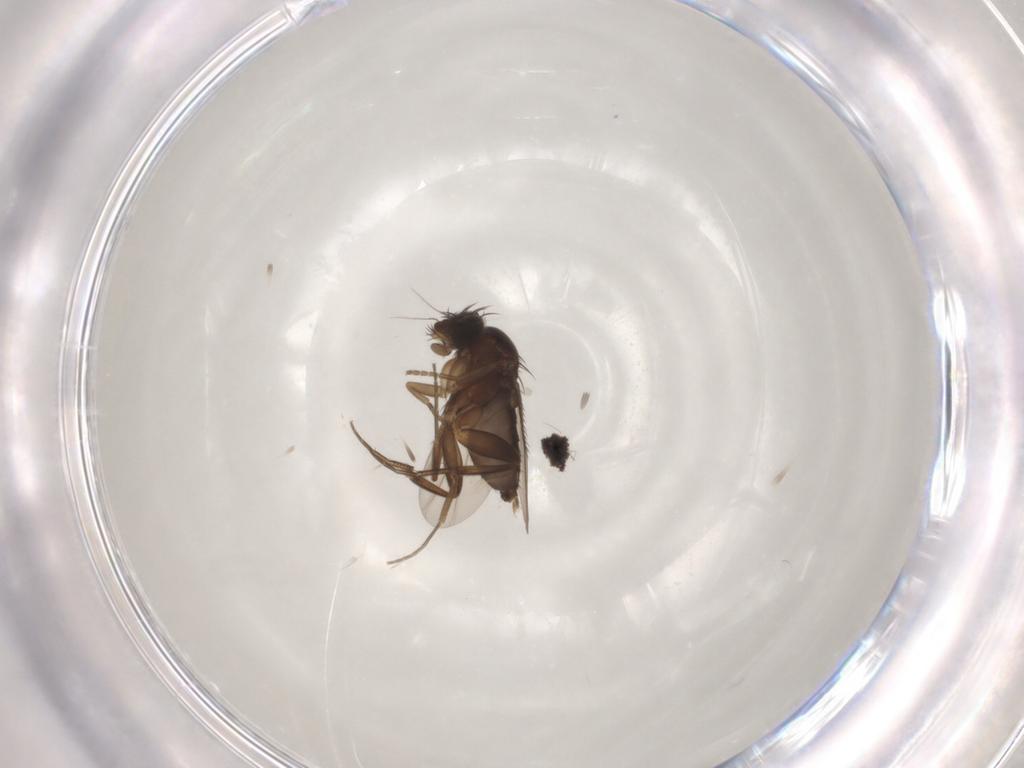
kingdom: Animalia
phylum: Arthropoda
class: Insecta
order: Diptera
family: Phoridae
